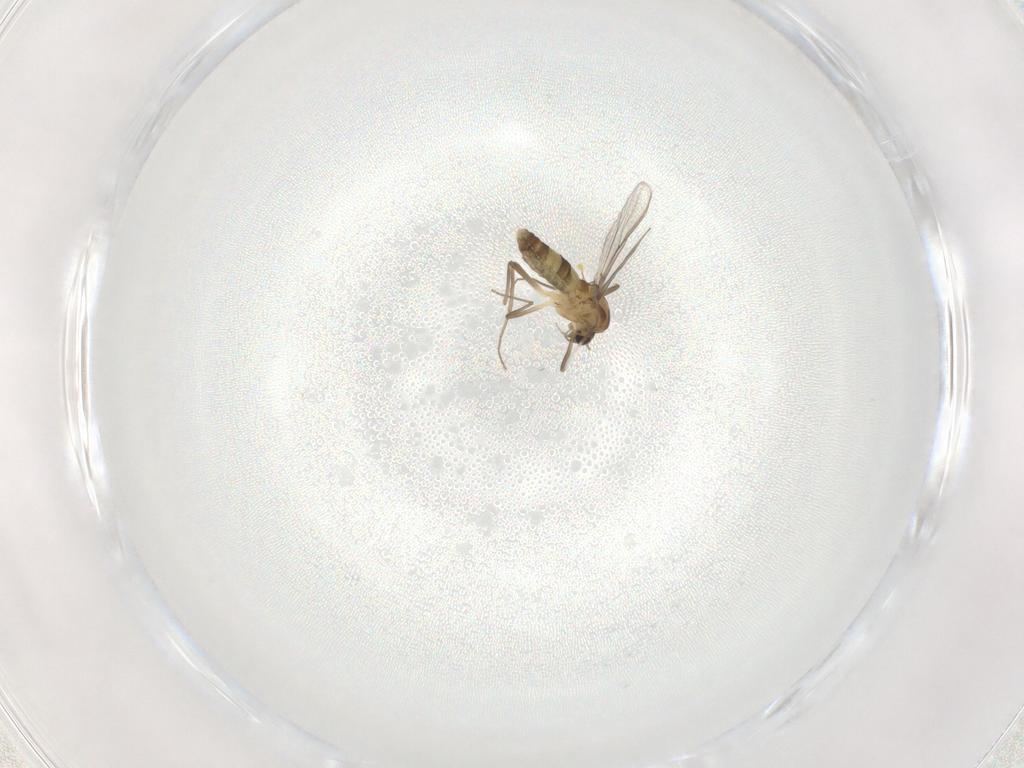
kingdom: Animalia
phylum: Arthropoda
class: Insecta
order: Diptera
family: Chironomidae
